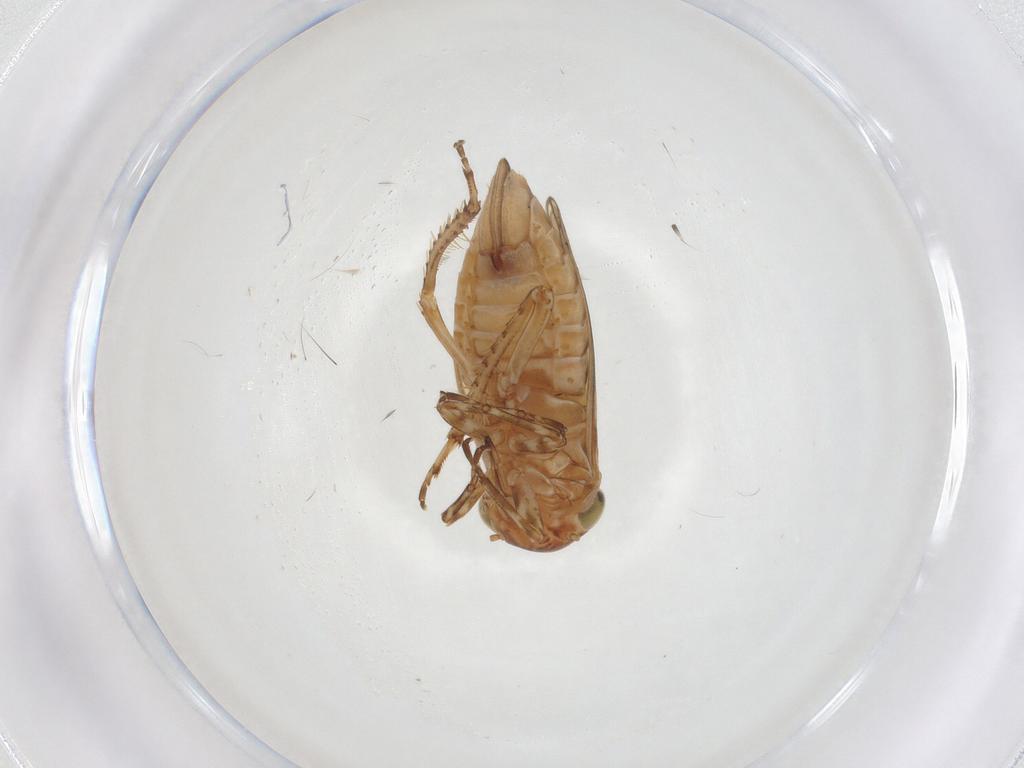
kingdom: Animalia
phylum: Arthropoda
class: Insecta
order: Hemiptera
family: Cicadellidae
